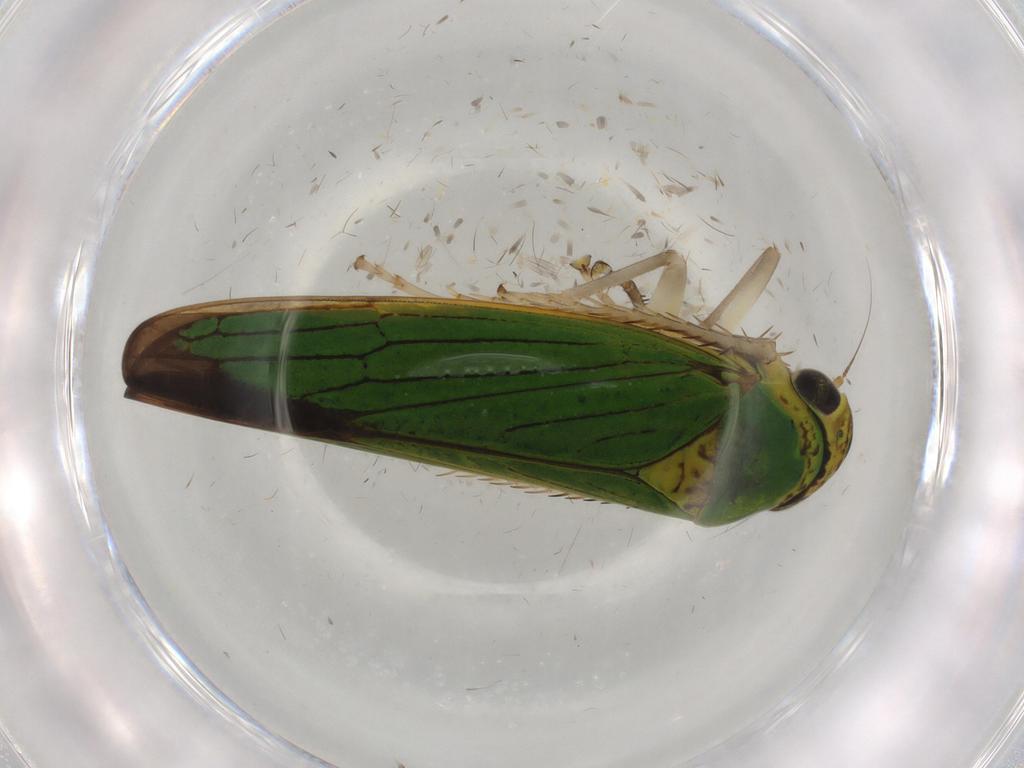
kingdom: Animalia
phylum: Arthropoda
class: Insecta
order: Hemiptera
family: Cicadellidae
